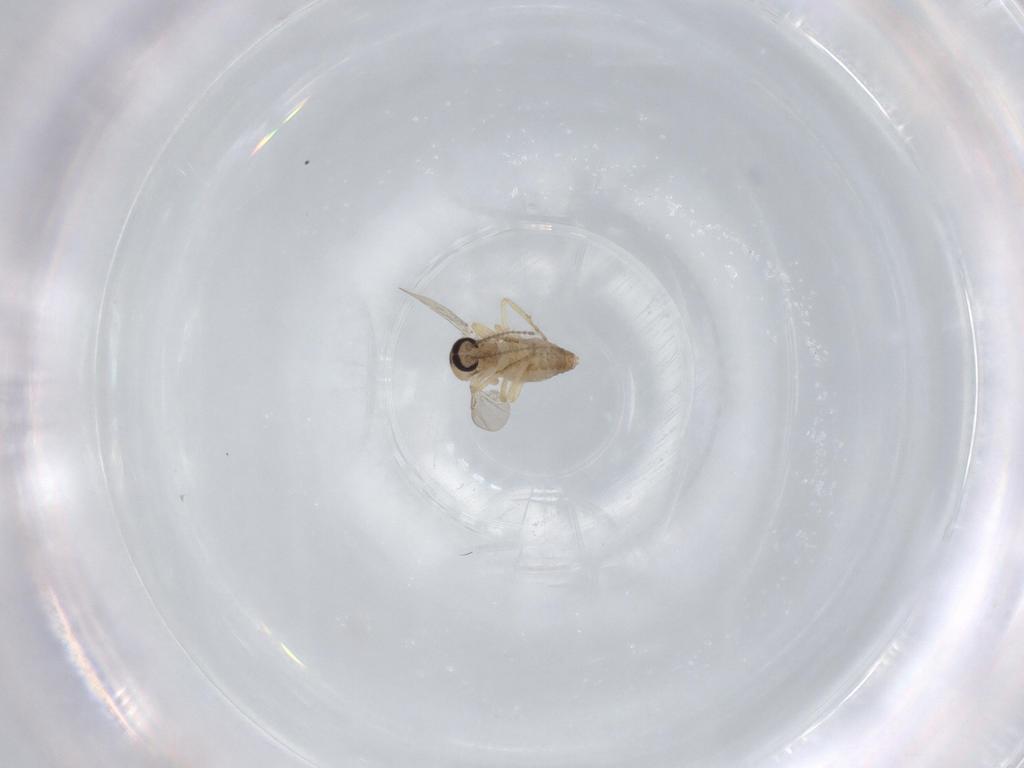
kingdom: Animalia
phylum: Arthropoda
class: Insecta
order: Diptera
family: Ceratopogonidae
